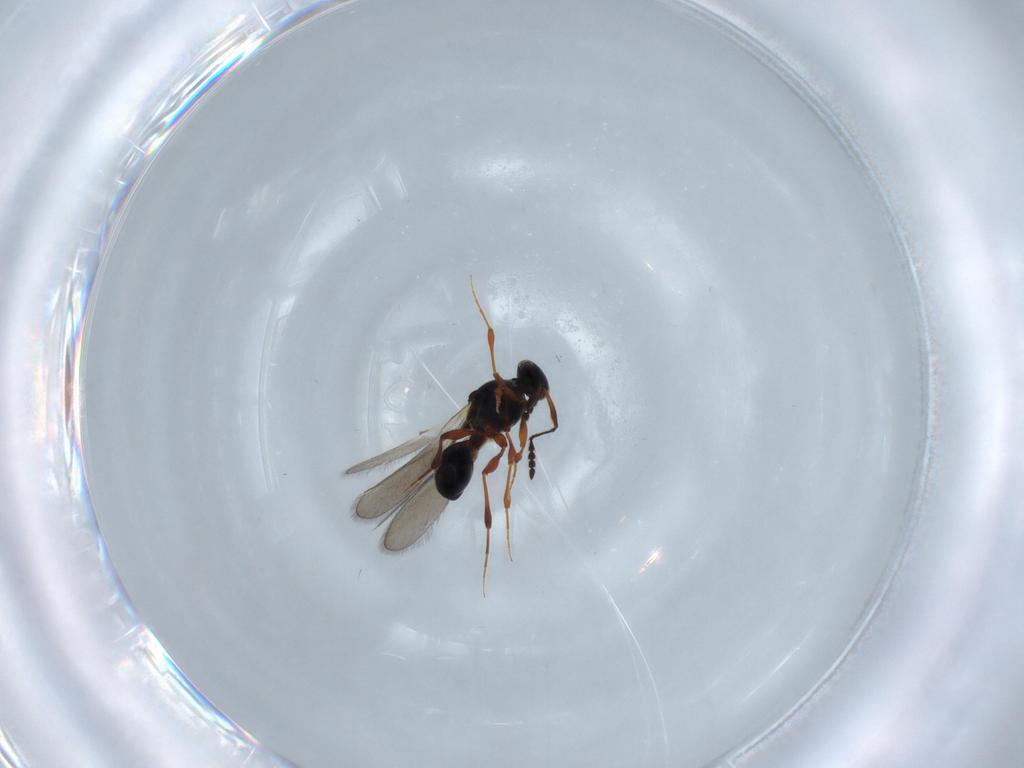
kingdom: Animalia
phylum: Arthropoda
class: Insecta
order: Hymenoptera
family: Platygastridae
